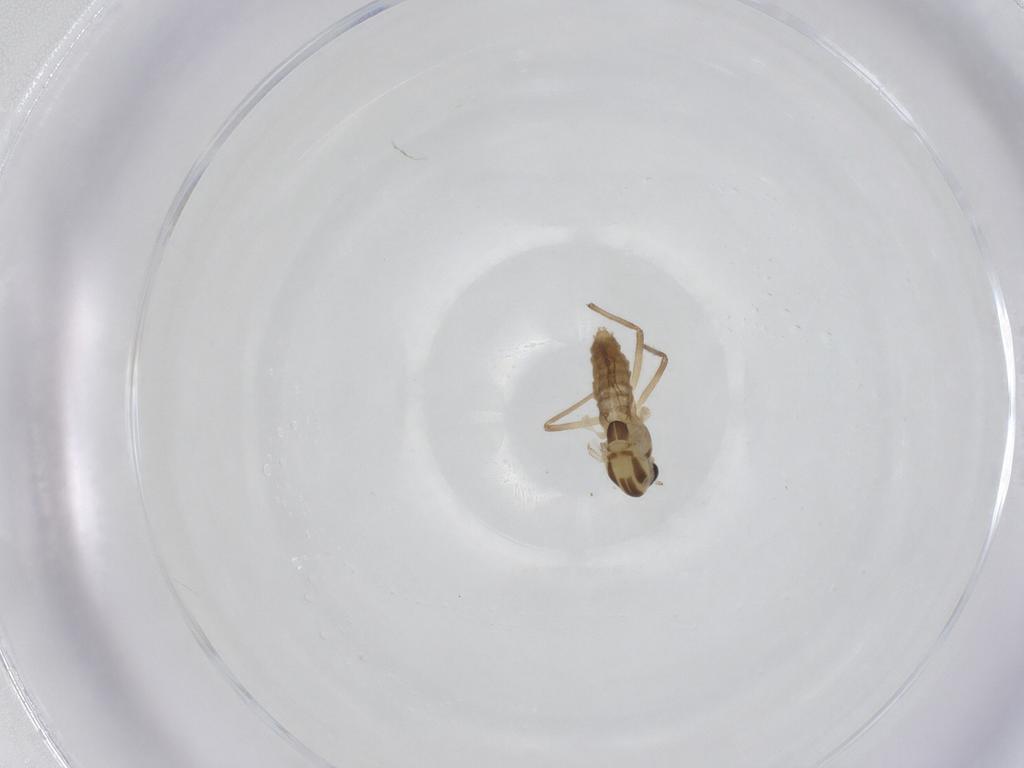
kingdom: Animalia
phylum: Arthropoda
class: Insecta
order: Diptera
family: Chironomidae
